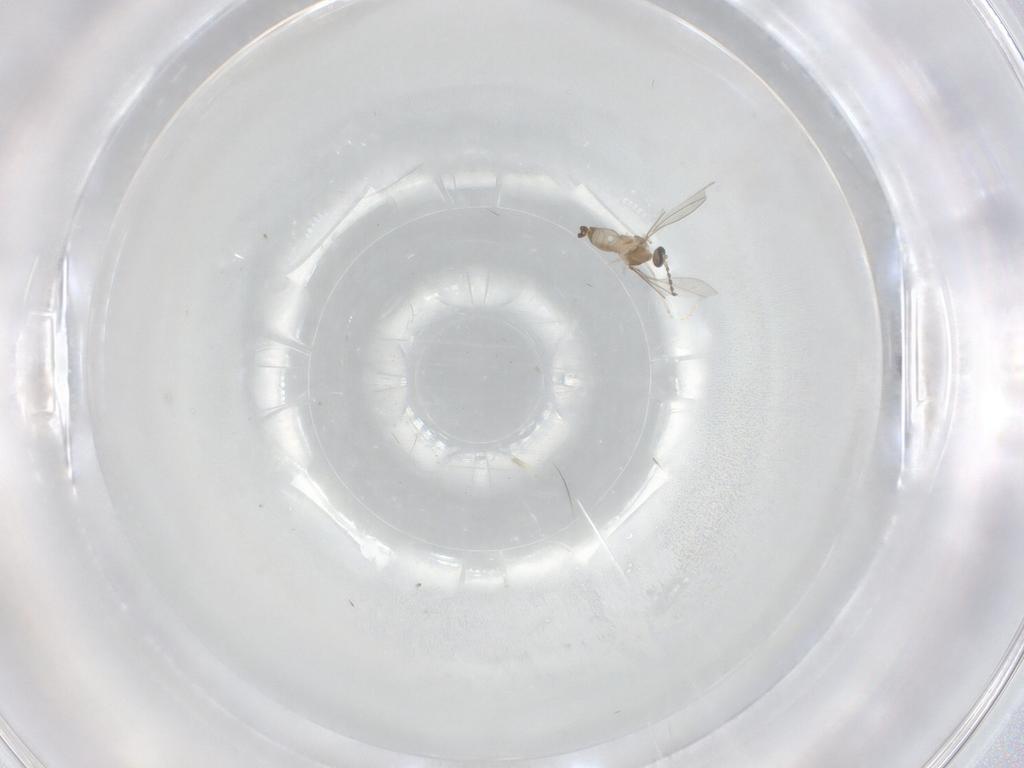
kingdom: Animalia
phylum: Arthropoda
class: Insecta
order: Diptera
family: Cecidomyiidae
